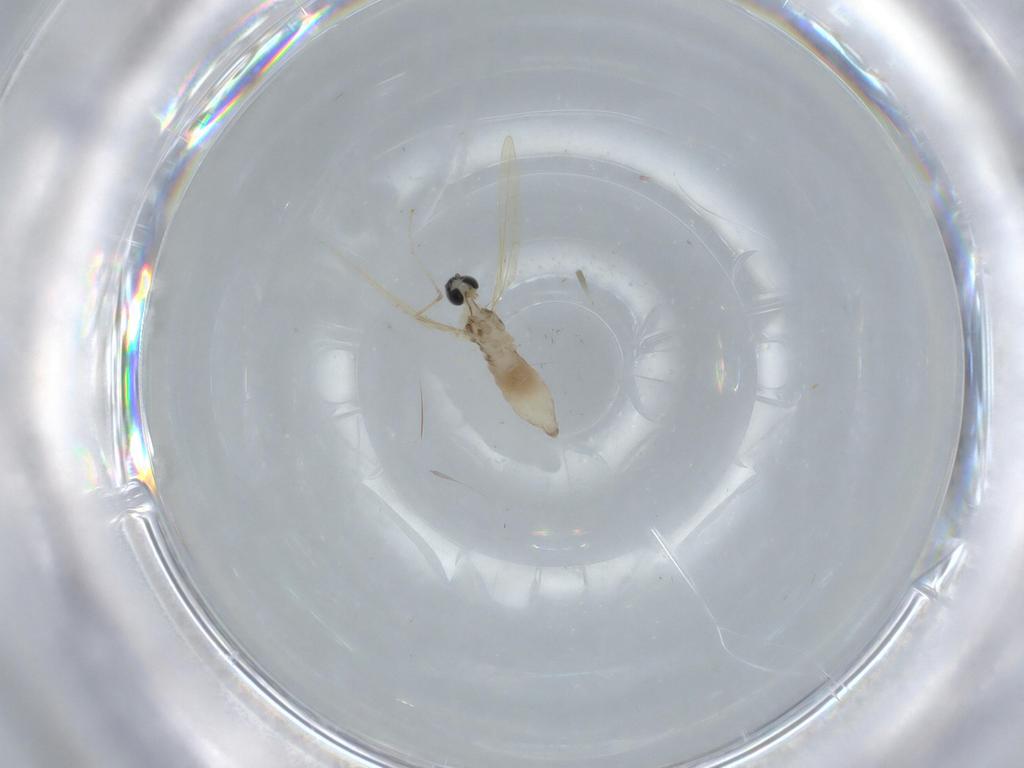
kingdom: Animalia
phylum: Arthropoda
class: Insecta
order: Diptera
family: Cecidomyiidae
